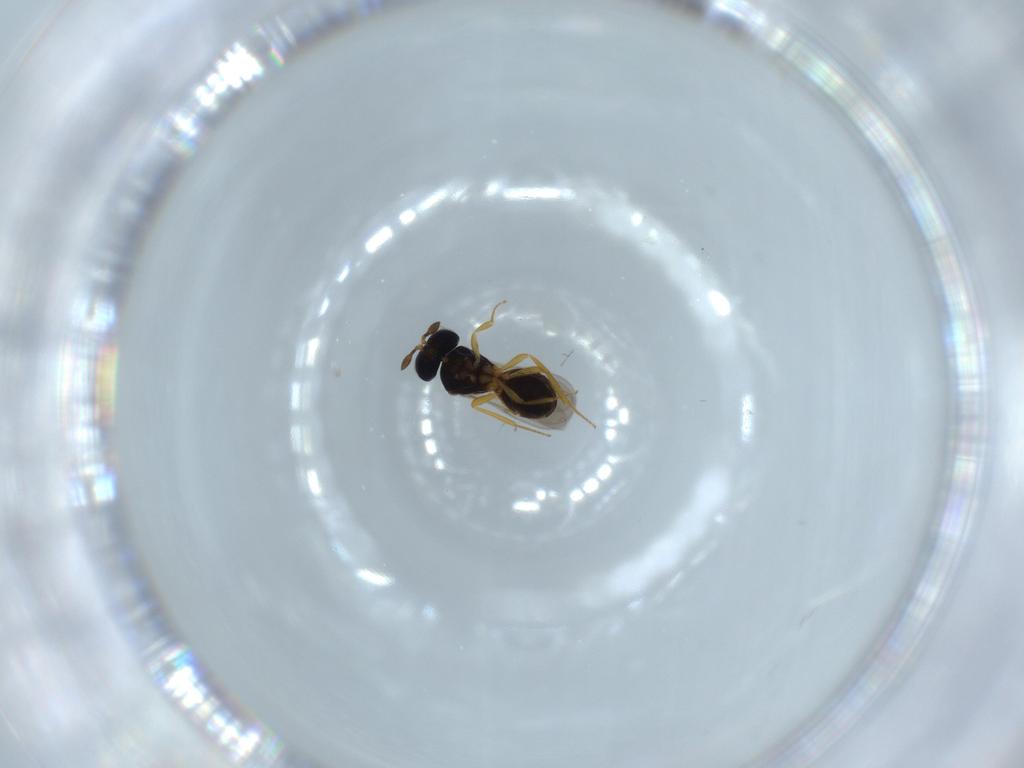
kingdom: Animalia
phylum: Arthropoda
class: Insecta
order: Hymenoptera
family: Scelionidae
